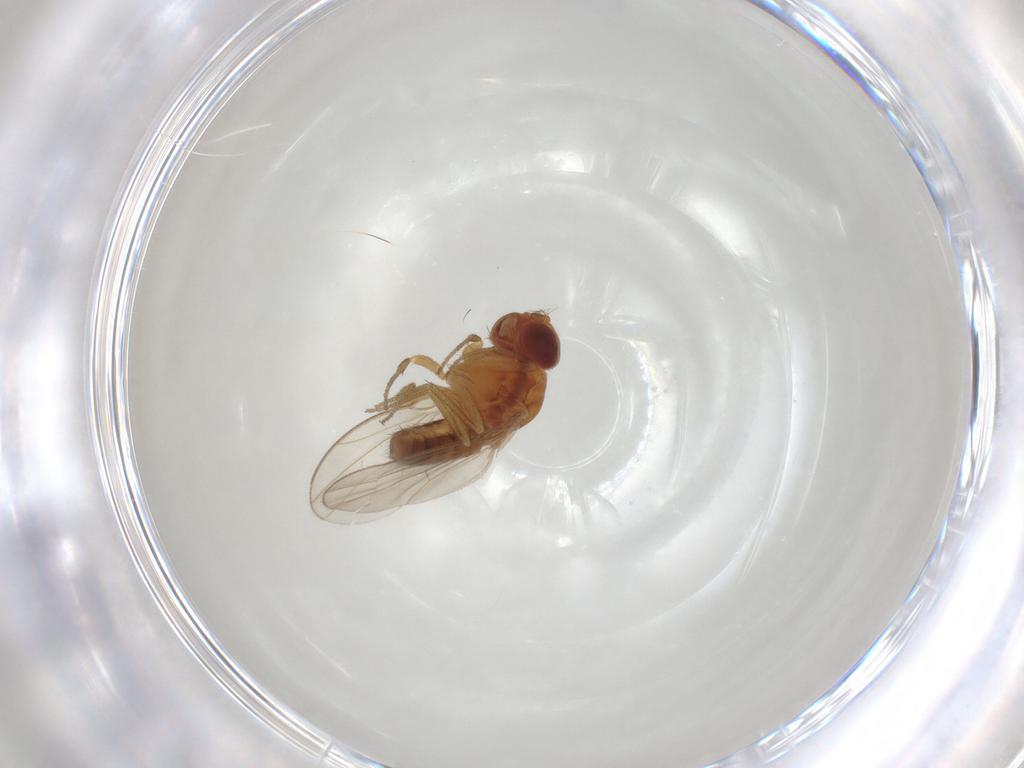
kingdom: Animalia
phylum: Arthropoda
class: Insecta
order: Diptera
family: Drosophilidae
